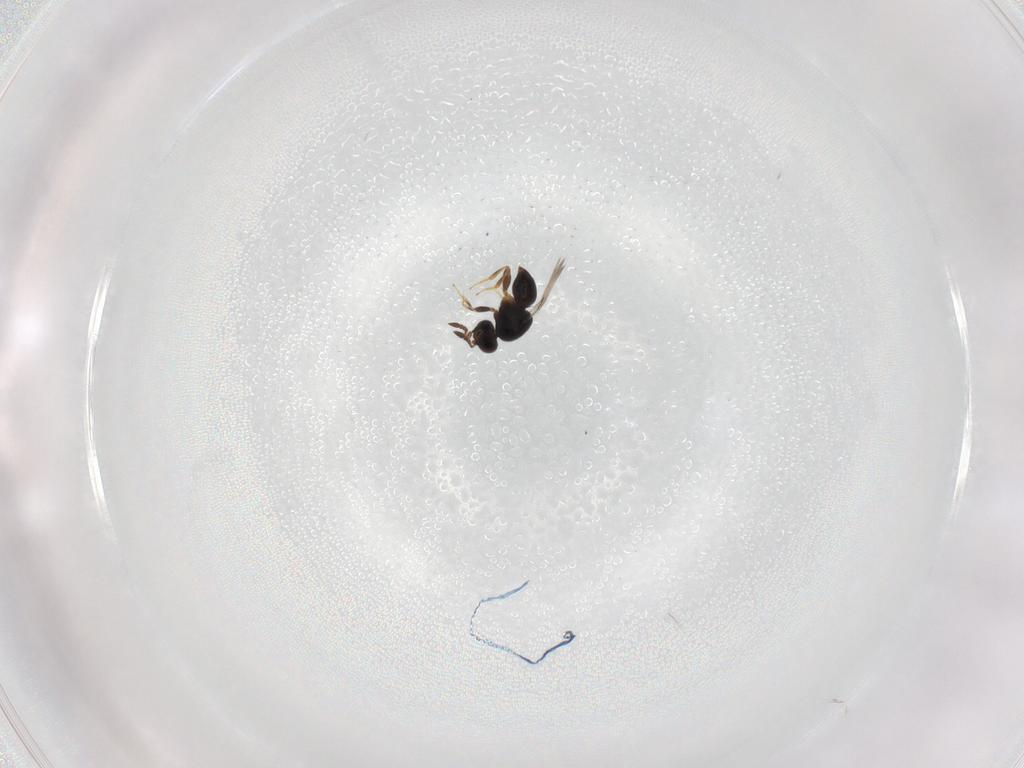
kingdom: Animalia
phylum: Arthropoda
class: Insecta
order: Hymenoptera
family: Ceraphronidae
